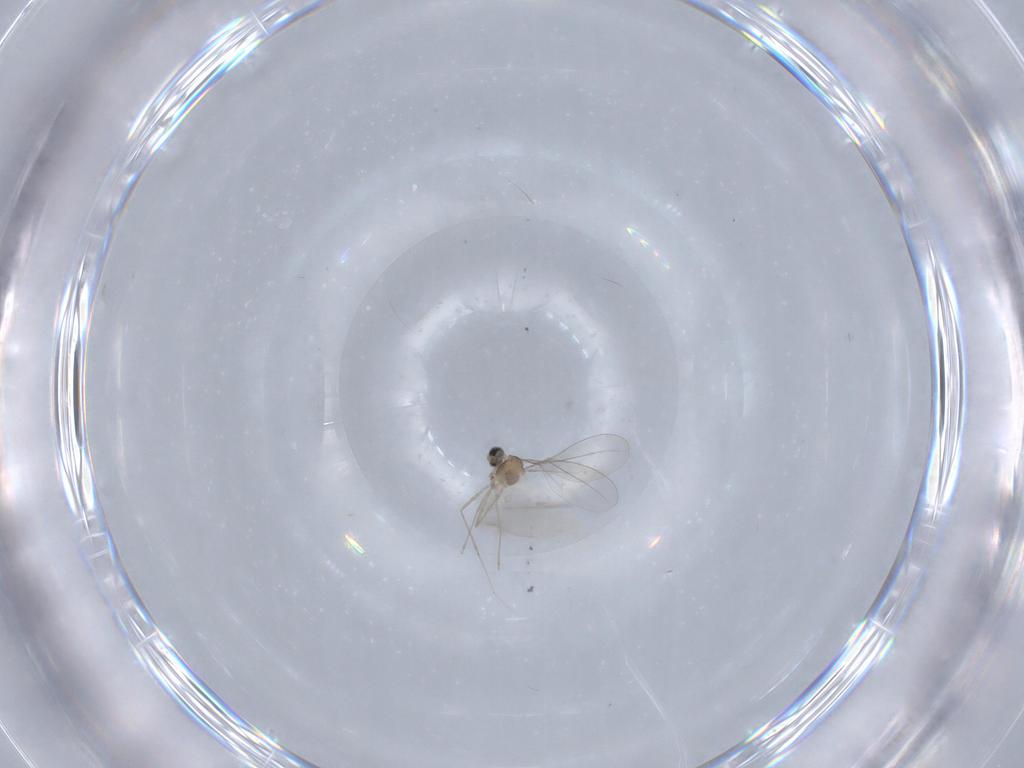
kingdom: Animalia
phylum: Arthropoda
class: Insecta
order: Diptera
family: Cecidomyiidae
